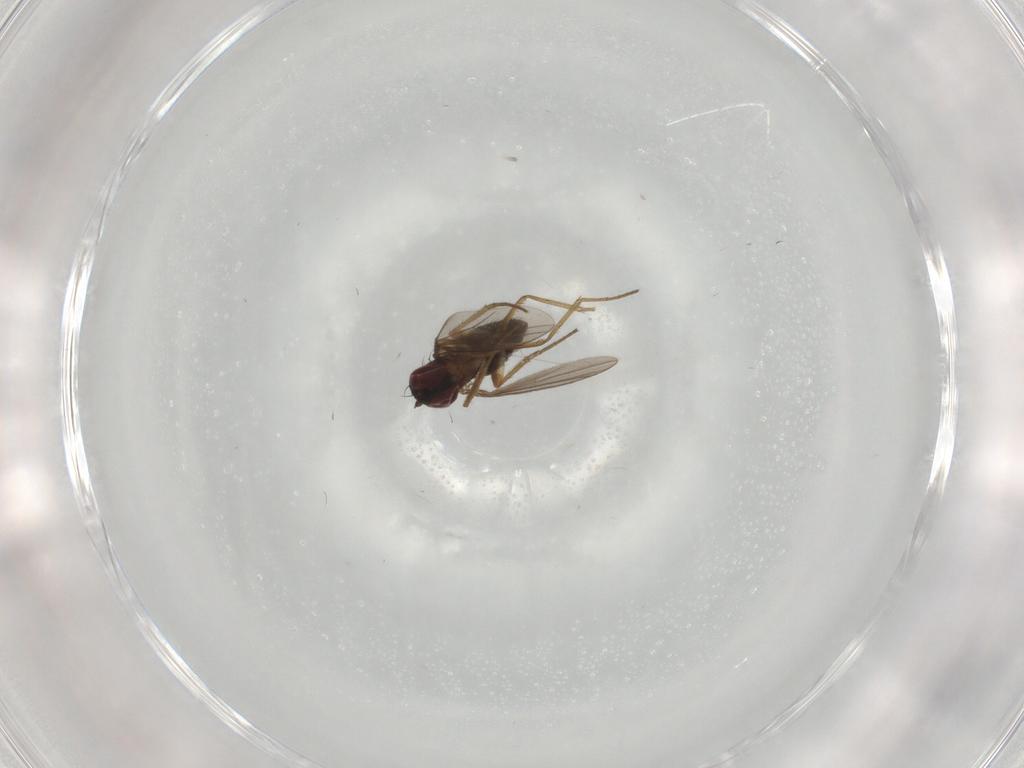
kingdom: Animalia
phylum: Arthropoda
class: Insecta
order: Diptera
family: Dolichopodidae
